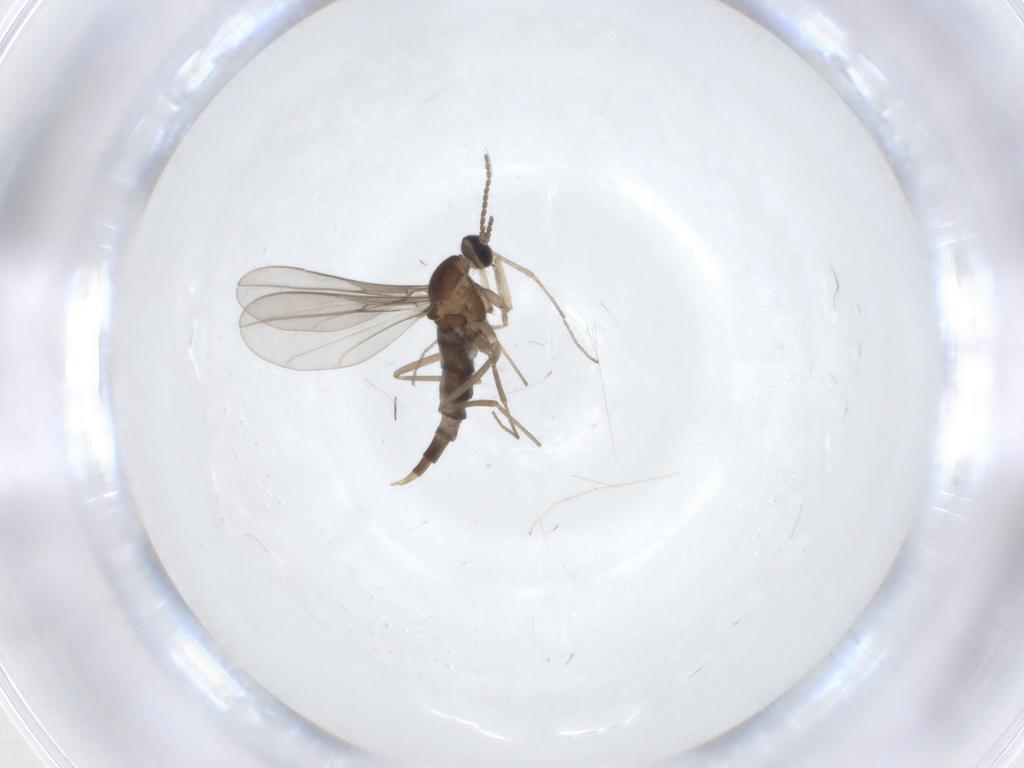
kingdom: Animalia
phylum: Arthropoda
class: Insecta
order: Diptera
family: Cecidomyiidae
